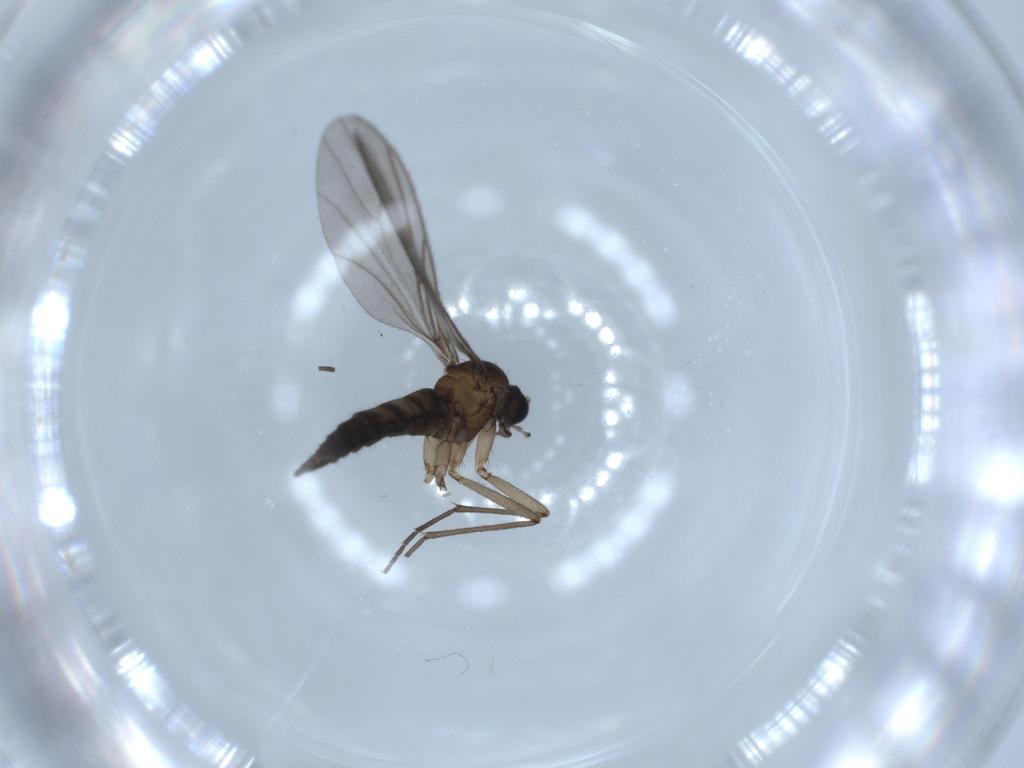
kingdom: Animalia
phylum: Arthropoda
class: Insecta
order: Diptera
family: Sciaridae
